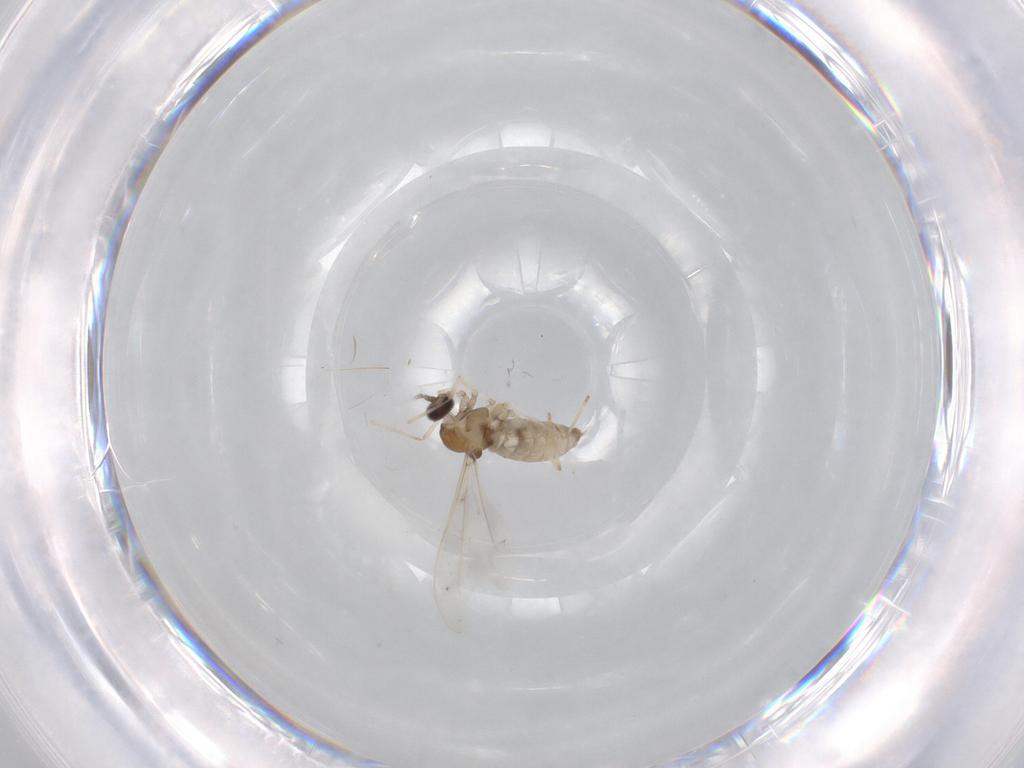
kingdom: Animalia
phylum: Arthropoda
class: Insecta
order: Diptera
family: Cecidomyiidae
